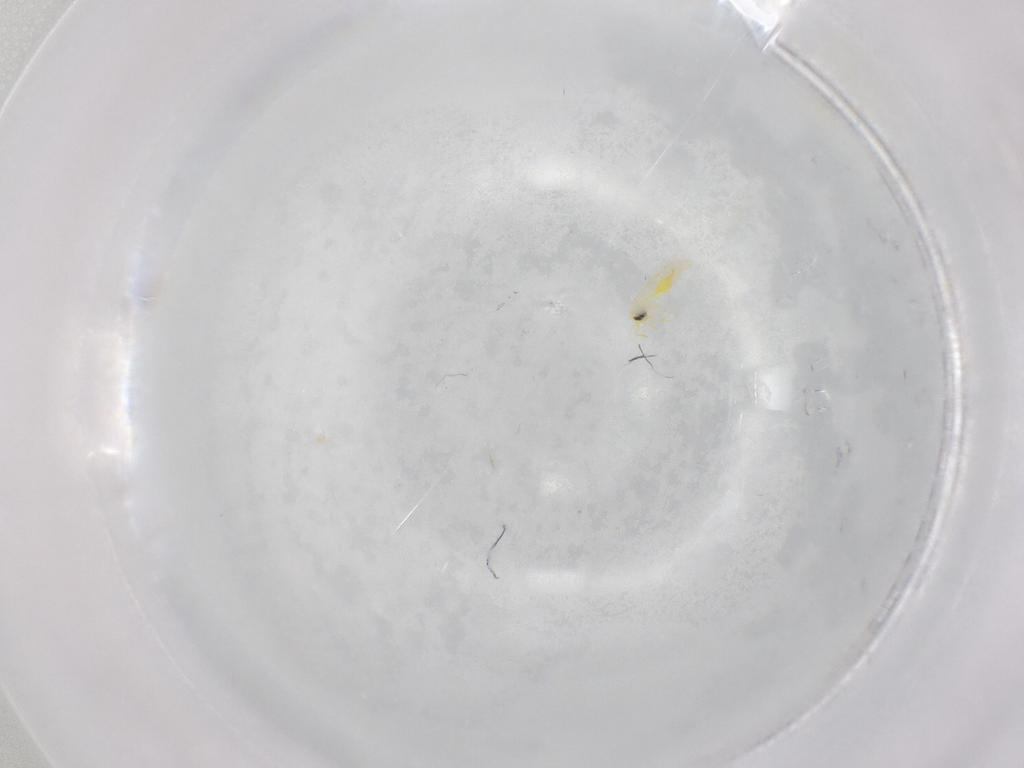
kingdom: Animalia
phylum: Arthropoda
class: Insecta
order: Hemiptera
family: Aleyrodidae
